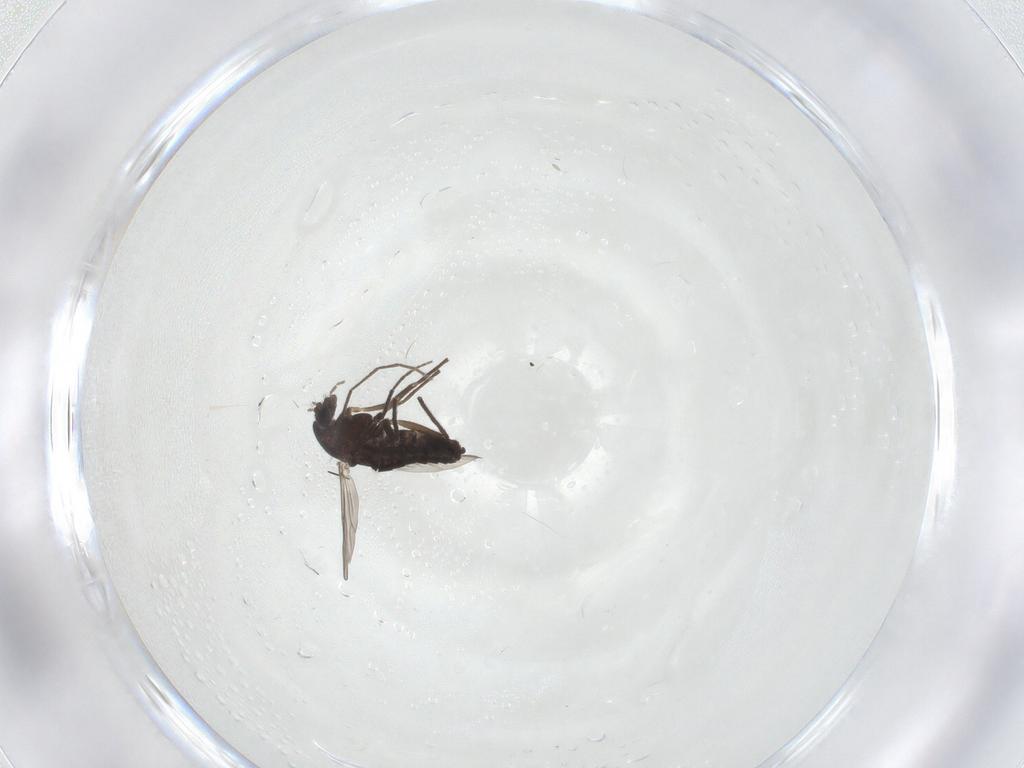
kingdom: Animalia
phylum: Arthropoda
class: Insecta
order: Diptera
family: Chironomidae
